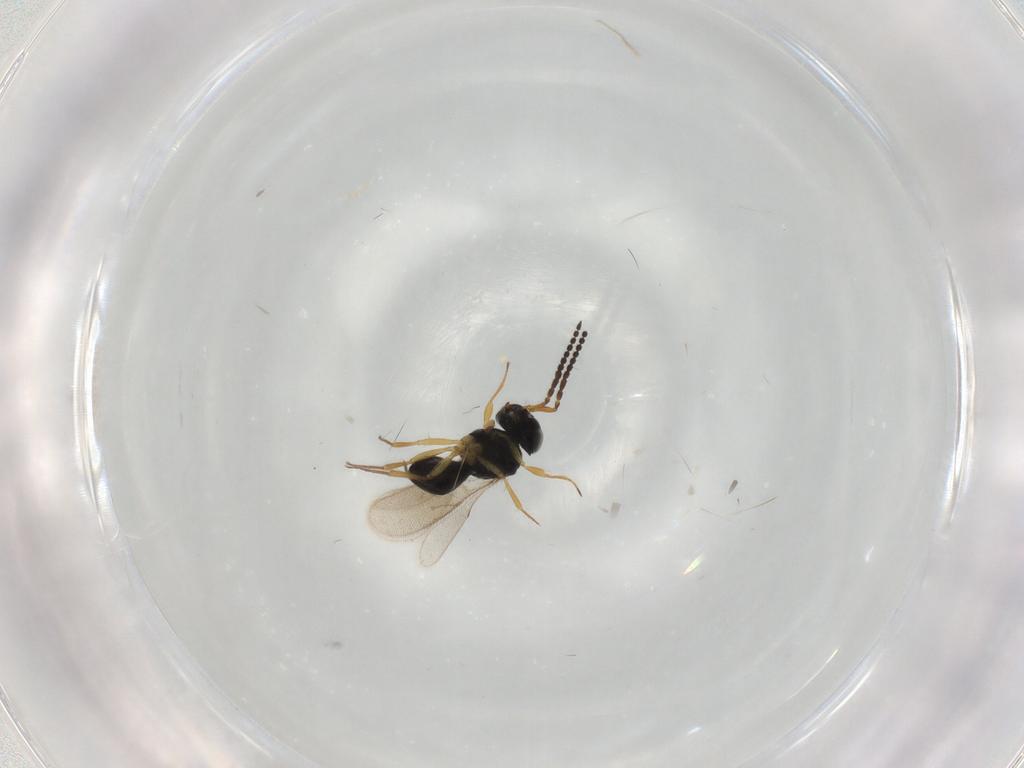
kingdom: Animalia
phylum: Arthropoda
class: Insecta
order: Hymenoptera
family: Scelionidae
